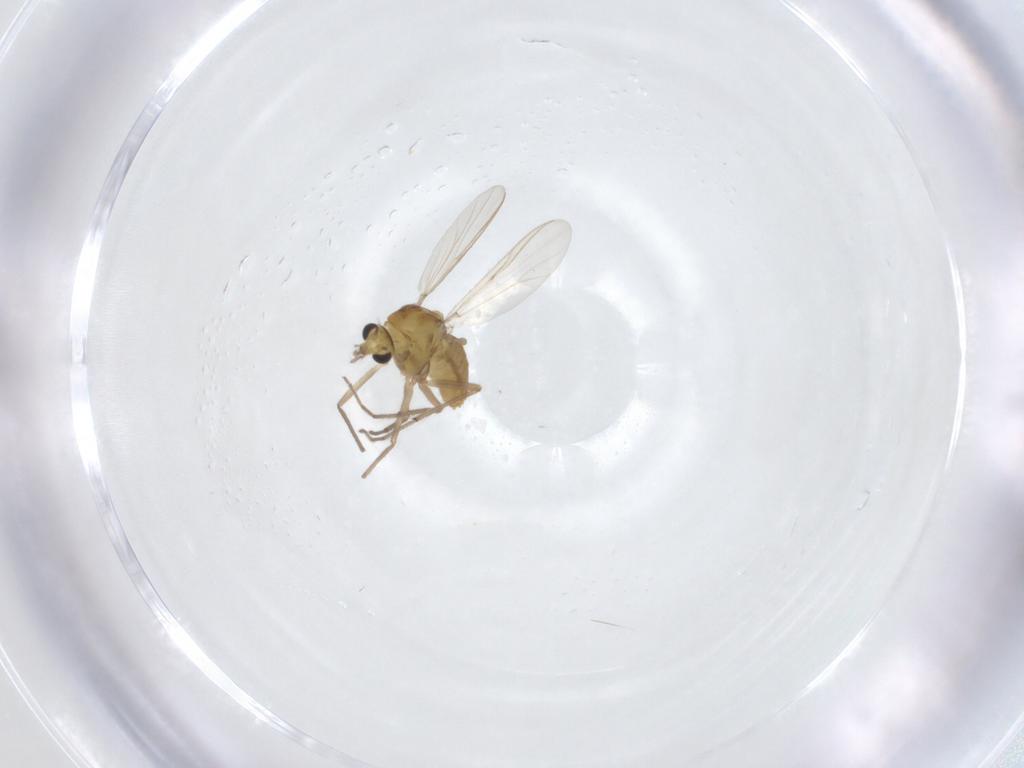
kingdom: Animalia
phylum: Arthropoda
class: Insecta
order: Diptera
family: Chironomidae
